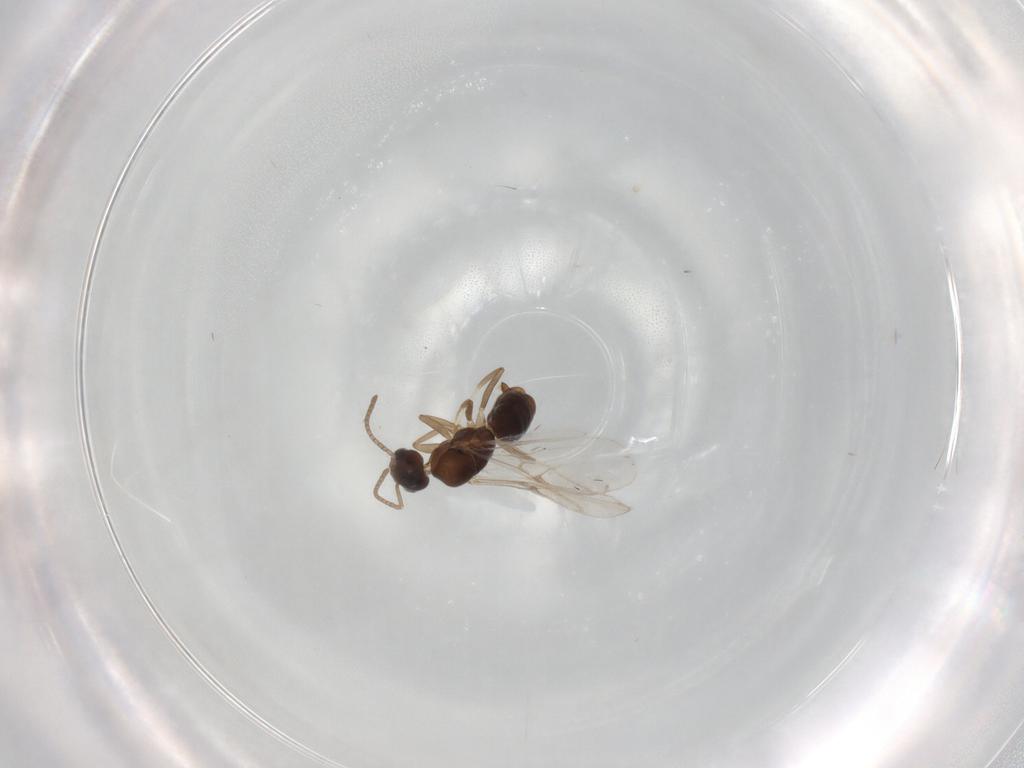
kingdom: Animalia
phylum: Arthropoda
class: Insecta
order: Hymenoptera
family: Formicidae
